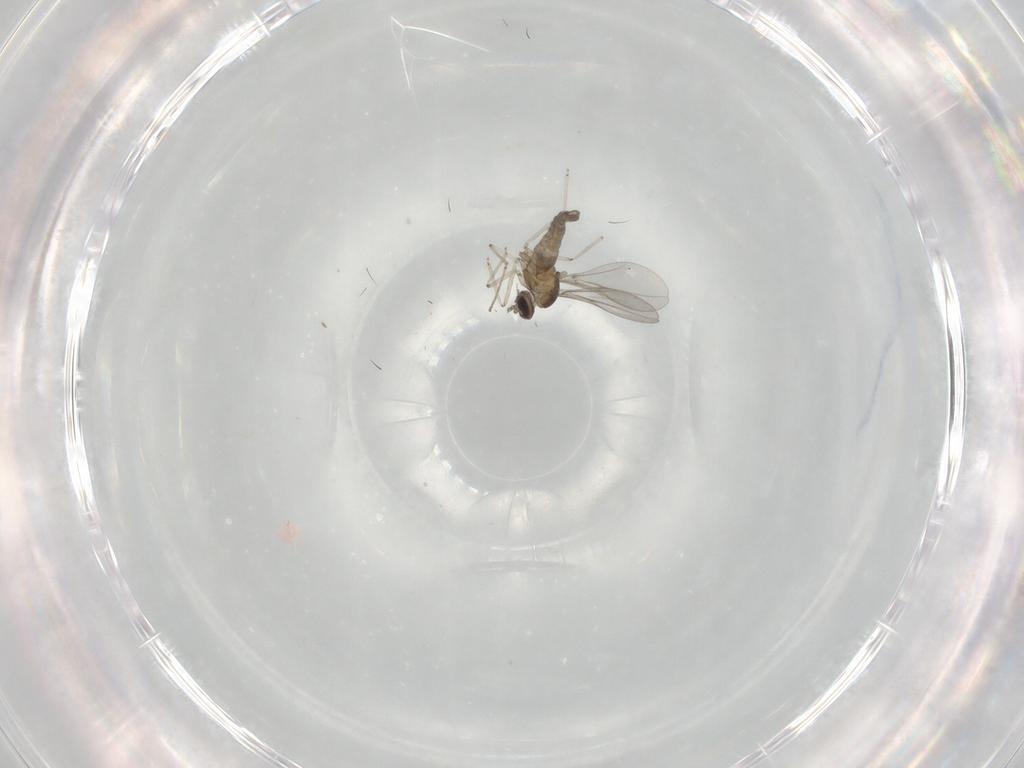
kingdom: Animalia
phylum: Arthropoda
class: Insecta
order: Diptera
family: Cecidomyiidae
